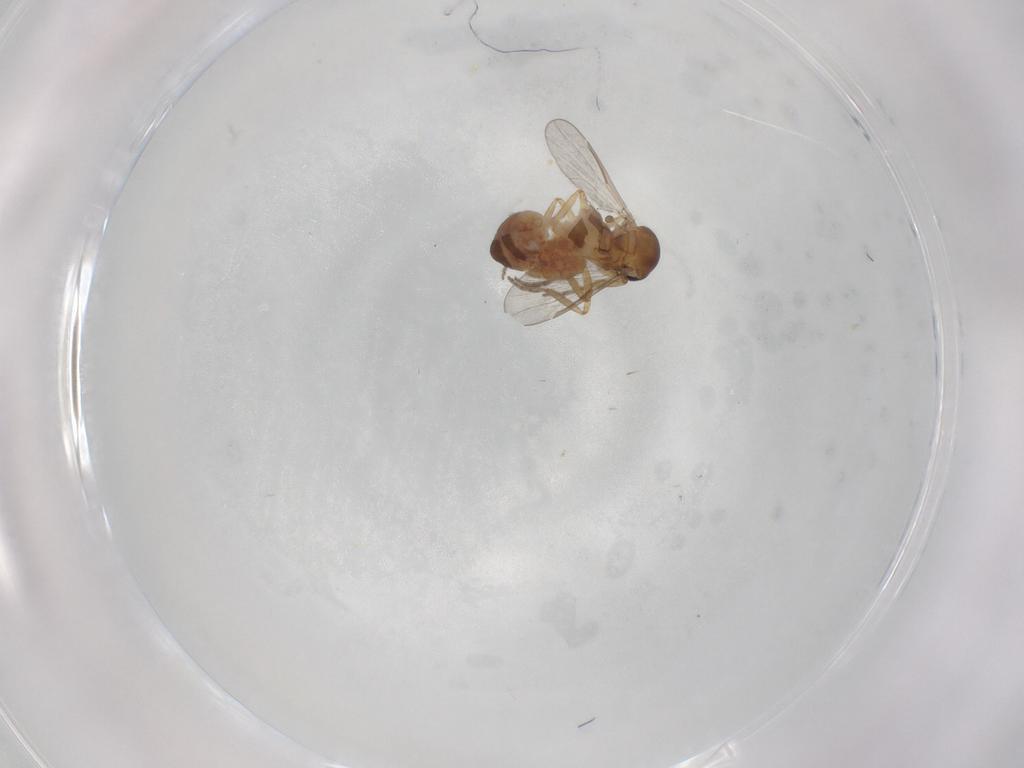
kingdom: Animalia
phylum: Arthropoda
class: Insecta
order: Diptera
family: Ceratopogonidae
